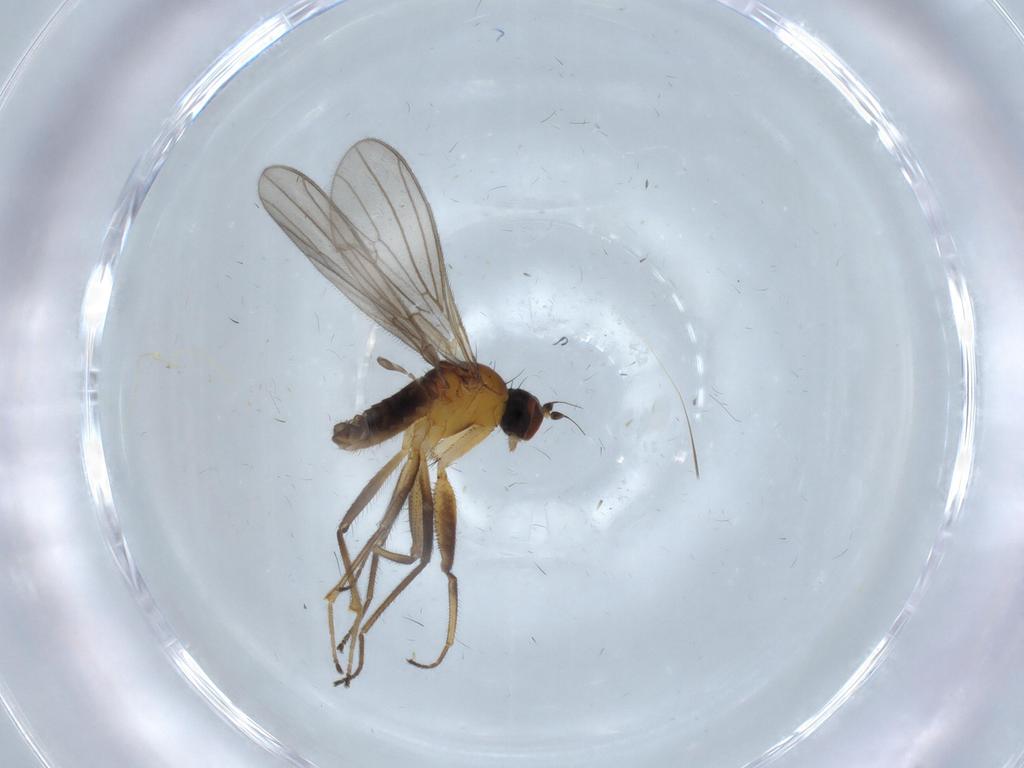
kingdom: Animalia
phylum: Arthropoda
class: Insecta
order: Diptera
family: Empididae
